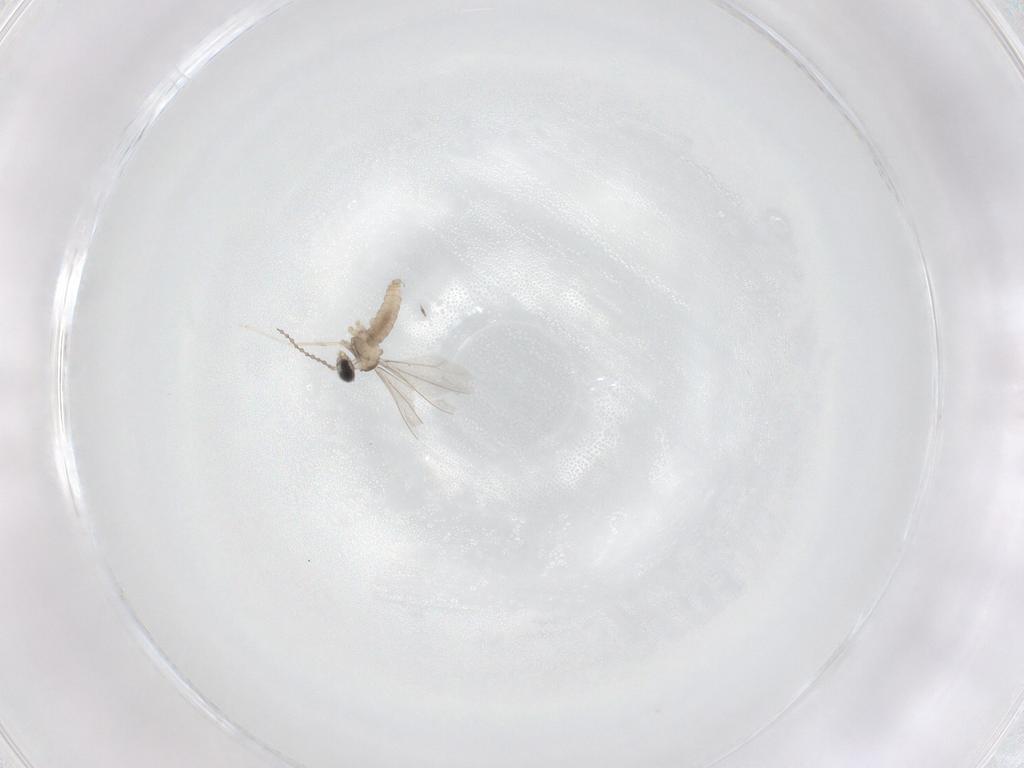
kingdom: Animalia
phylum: Arthropoda
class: Insecta
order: Diptera
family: Cecidomyiidae
